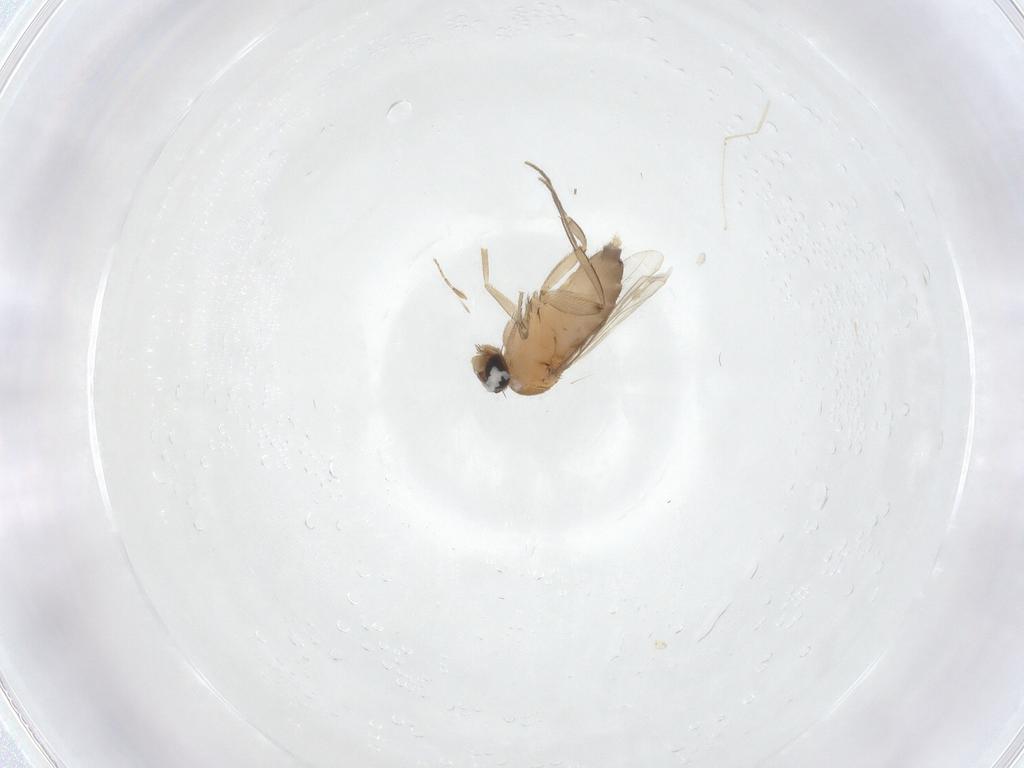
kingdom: Animalia
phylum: Arthropoda
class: Insecta
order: Diptera
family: Phoridae
